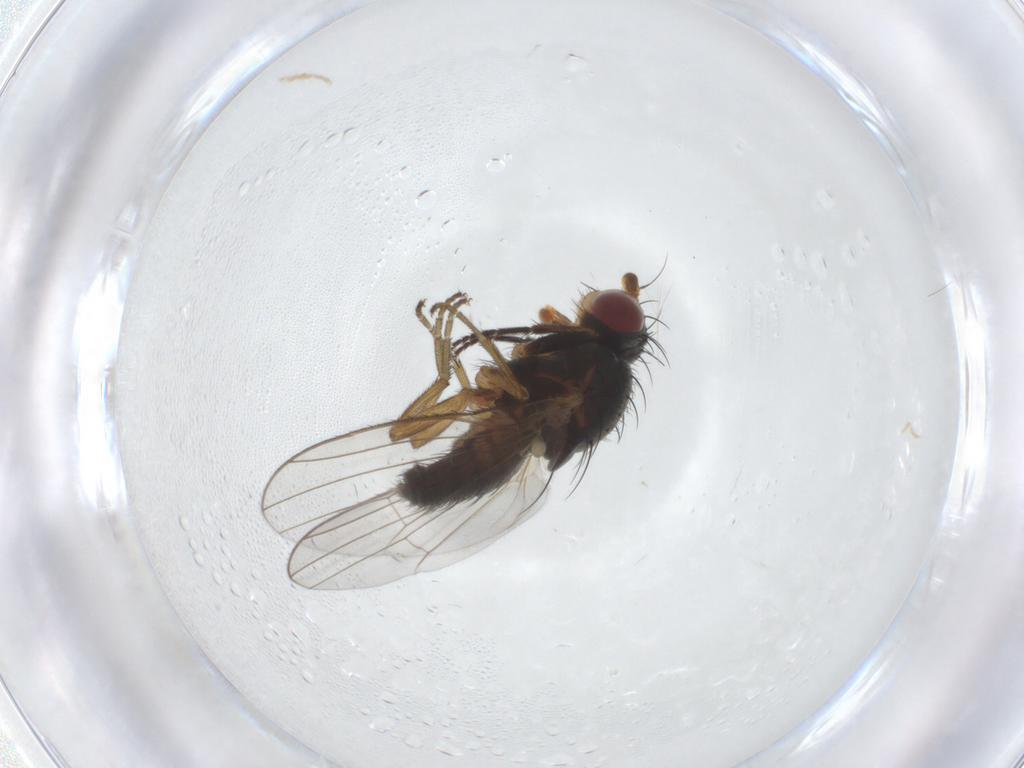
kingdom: Animalia
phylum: Arthropoda
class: Insecta
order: Diptera
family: Heleomyzidae
